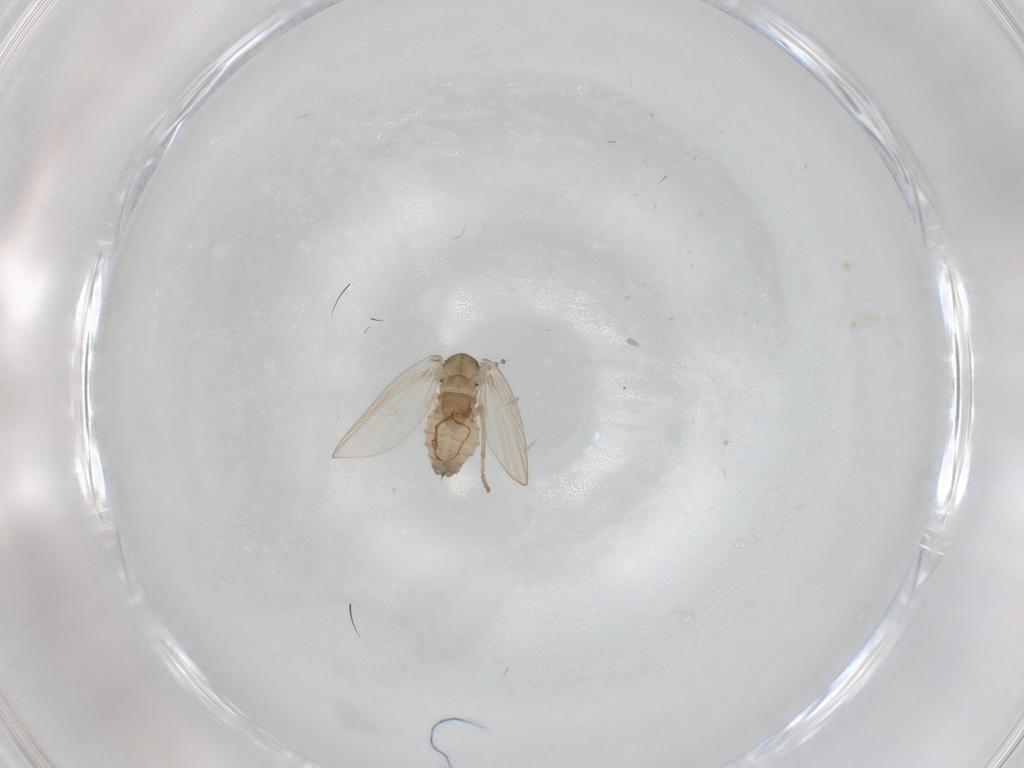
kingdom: Animalia
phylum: Arthropoda
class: Insecta
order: Diptera
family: Psychodidae
